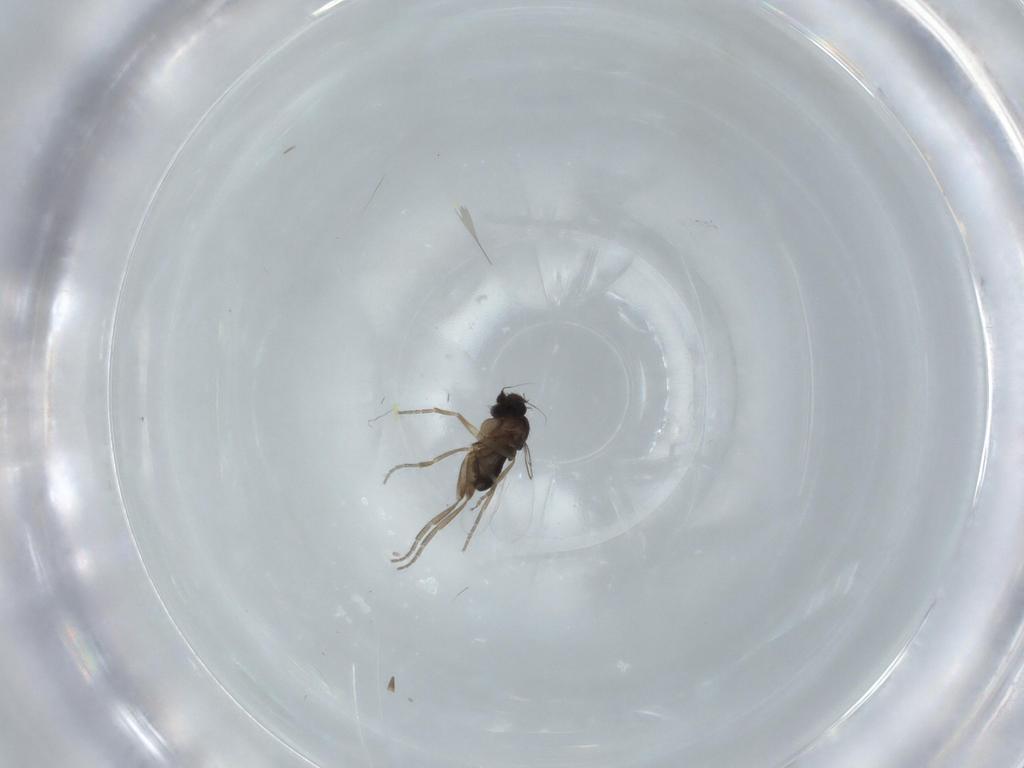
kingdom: Animalia
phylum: Arthropoda
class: Insecta
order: Diptera
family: Phoridae
